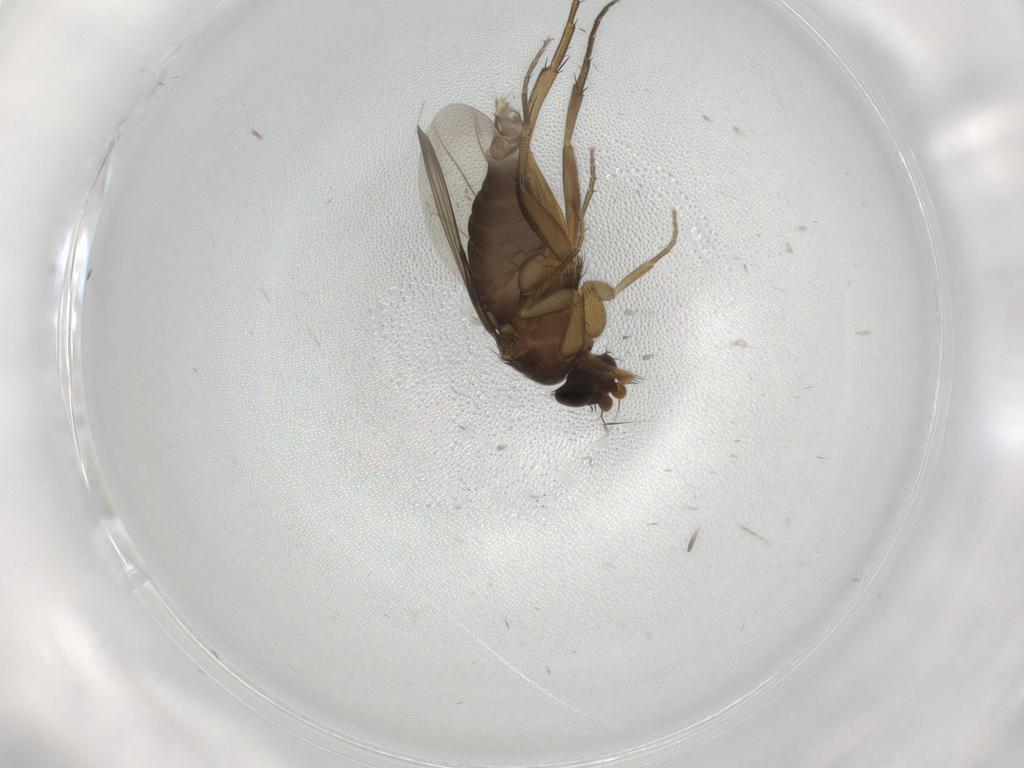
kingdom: Animalia
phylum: Arthropoda
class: Insecta
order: Diptera
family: Phoridae
